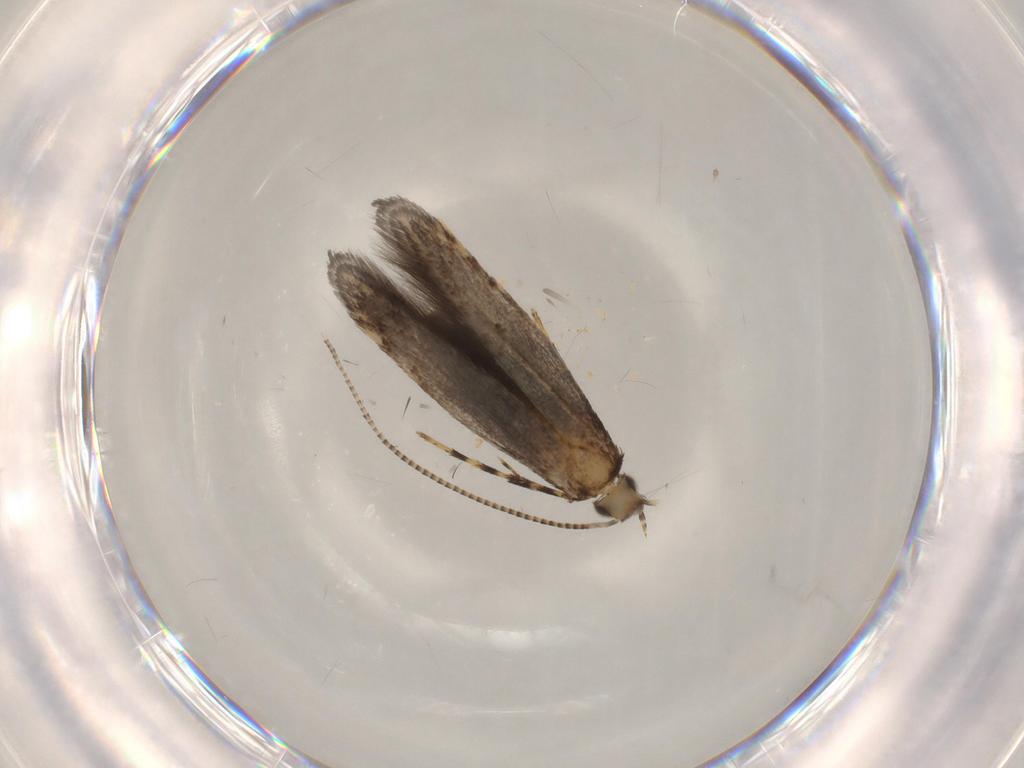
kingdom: Animalia
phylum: Arthropoda
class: Insecta
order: Lepidoptera
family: Gracillariidae
